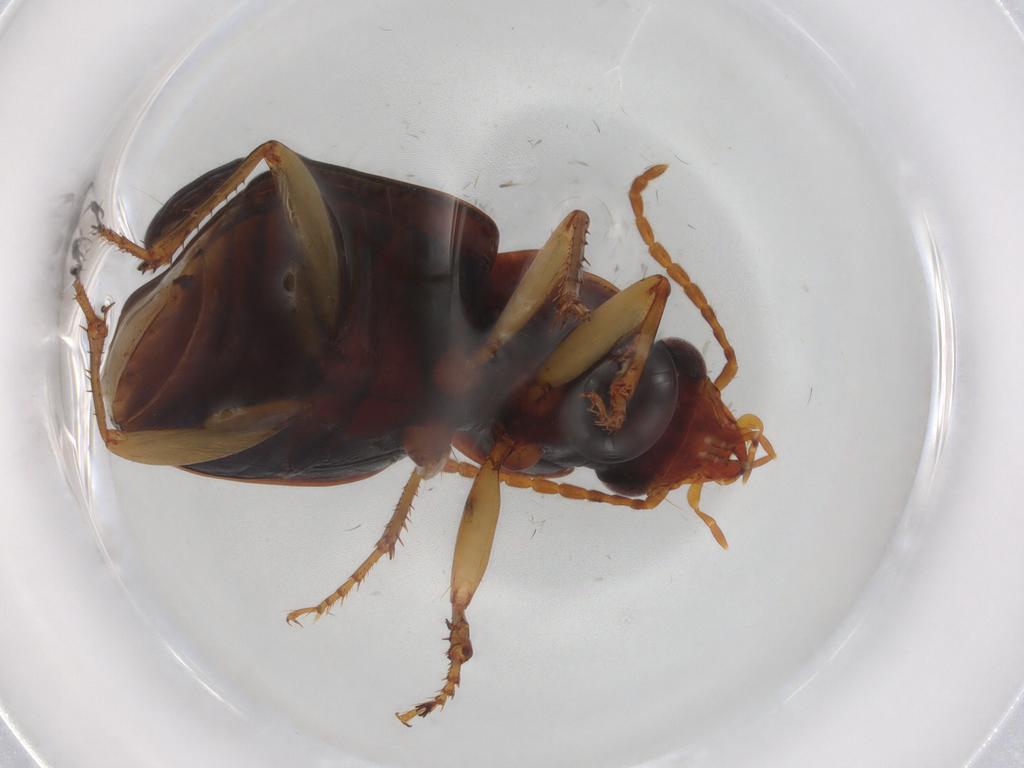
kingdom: Animalia
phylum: Arthropoda
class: Insecta
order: Coleoptera
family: Carabidae
